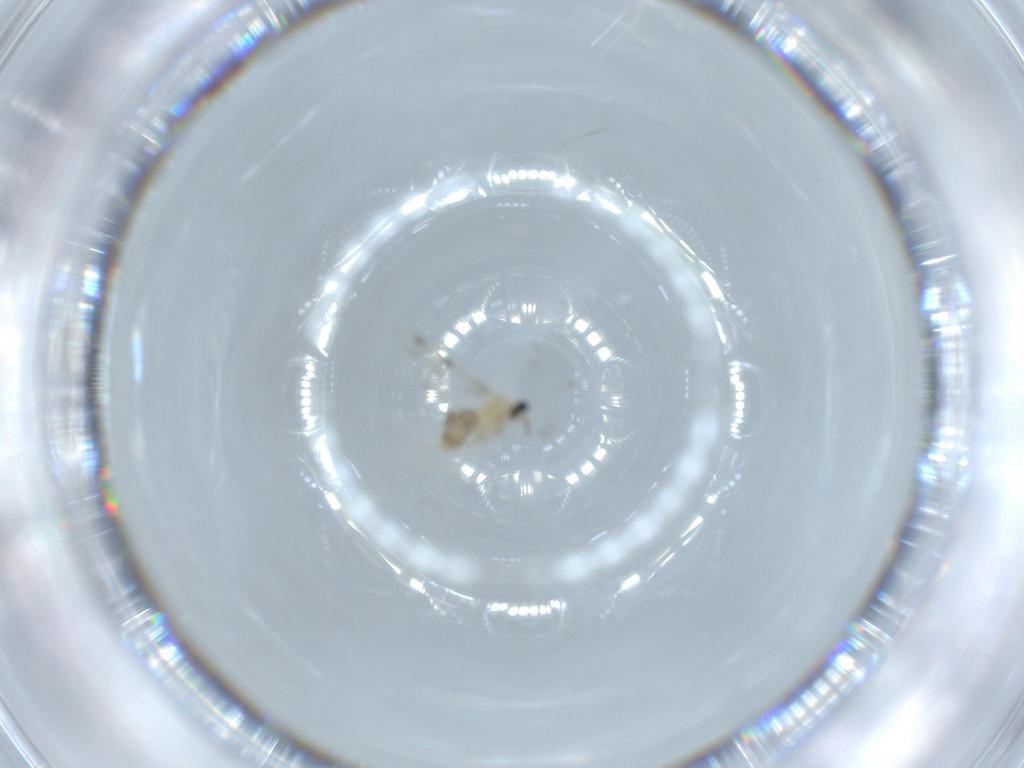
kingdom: Animalia
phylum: Arthropoda
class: Insecta
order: Diptera
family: Cecidomyiidae
